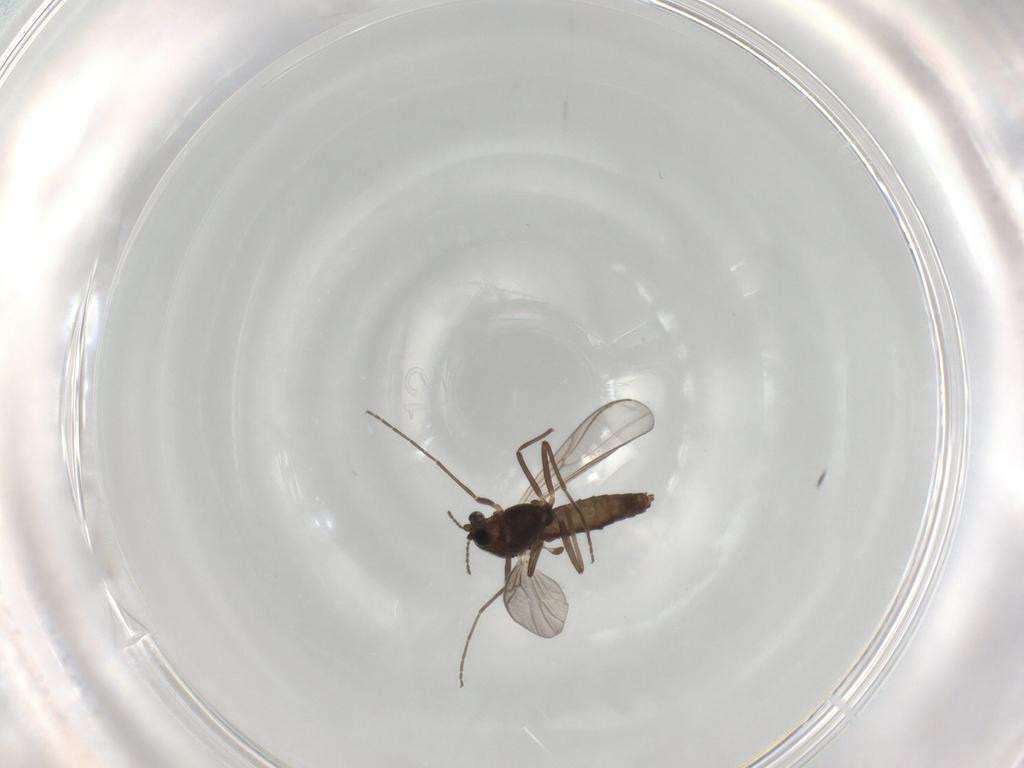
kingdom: Animalia
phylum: Arthropoda
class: Insecta
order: Diptera
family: Chironomidae
